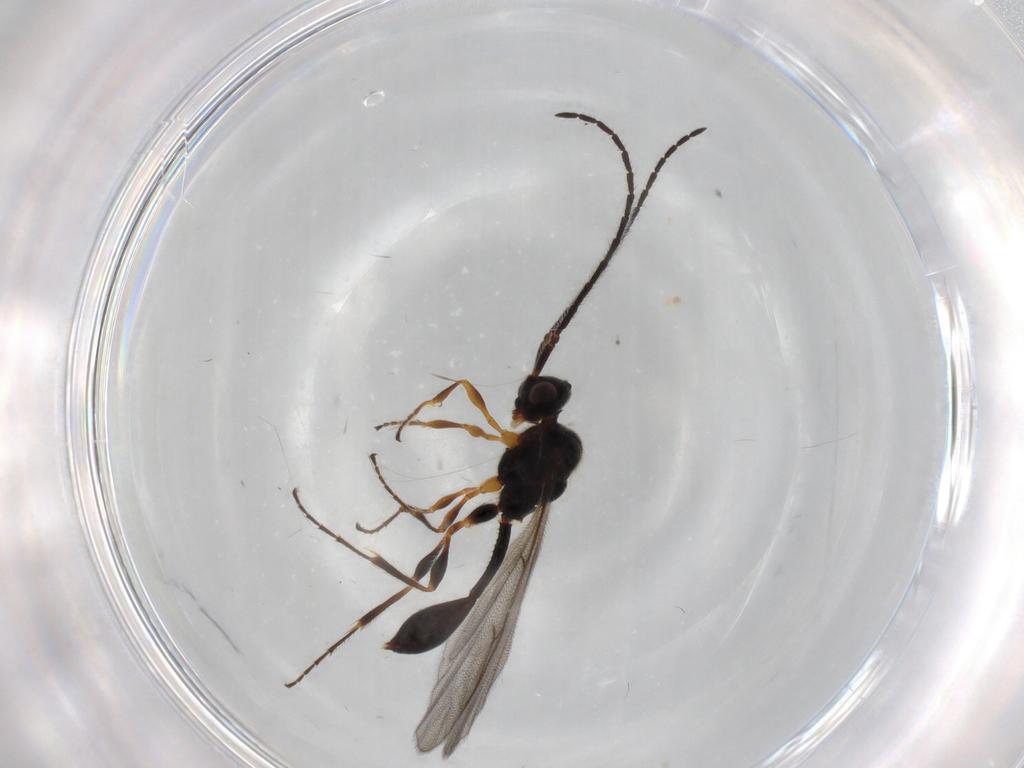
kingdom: Animalia
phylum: Arthropoda
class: Insecta
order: Hymenoptera
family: Diapriidae
